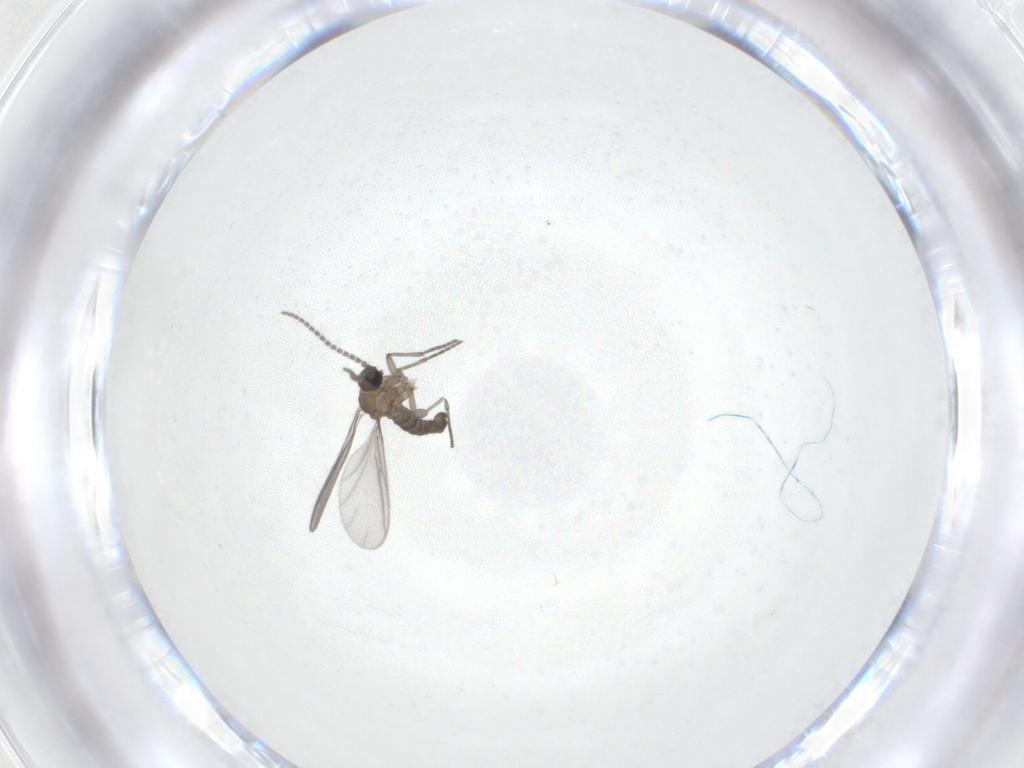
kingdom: Animalia
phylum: Arthropoda
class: Insecta
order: Diptera
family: Sciaridae
